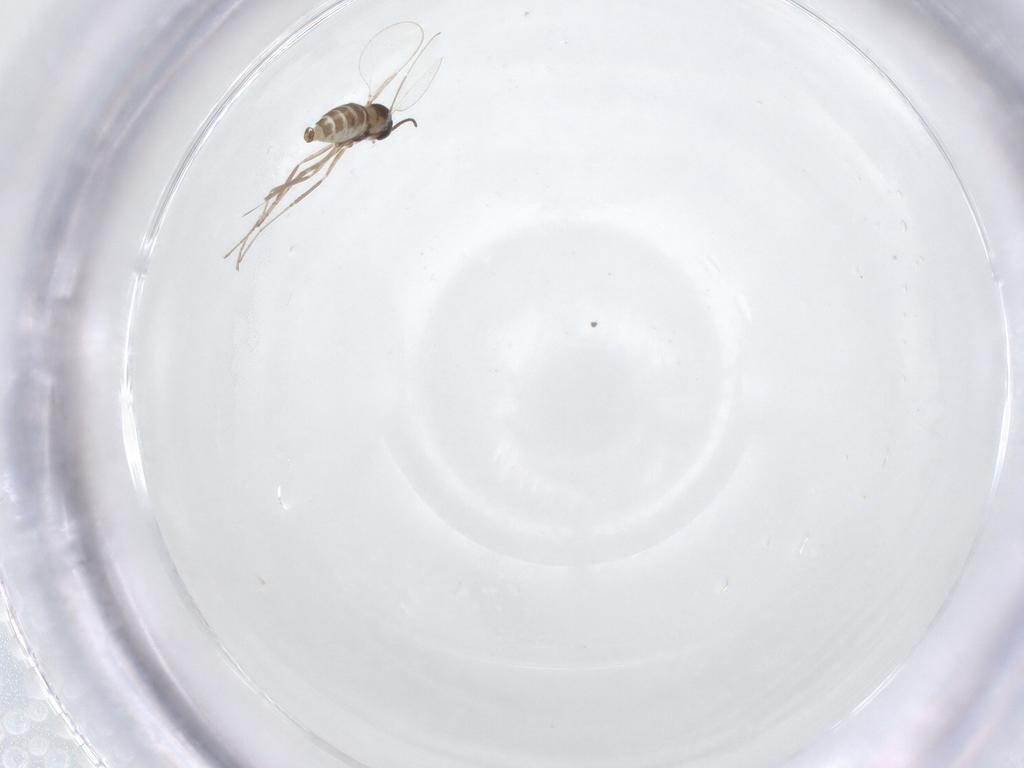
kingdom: Animalia
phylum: Arthropoda
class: Insecta
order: Diptera
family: Cecidomyiidae
